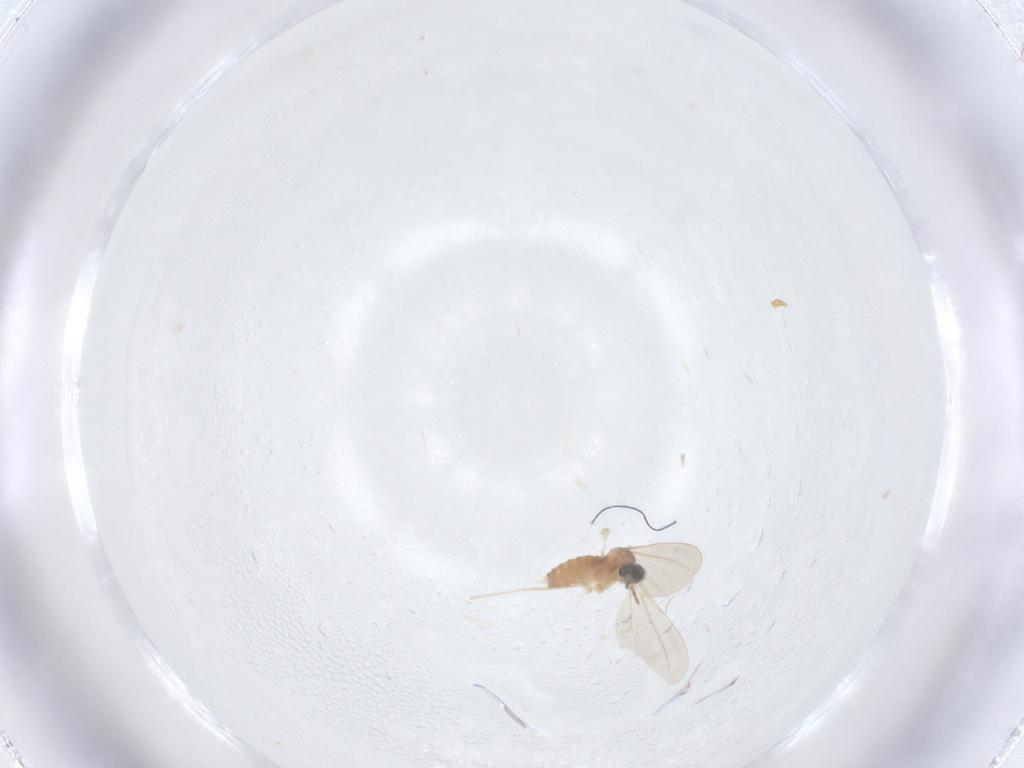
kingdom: Animalia
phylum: Arthropoda
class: Insecta
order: Diptera
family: Cecidomyiidae
